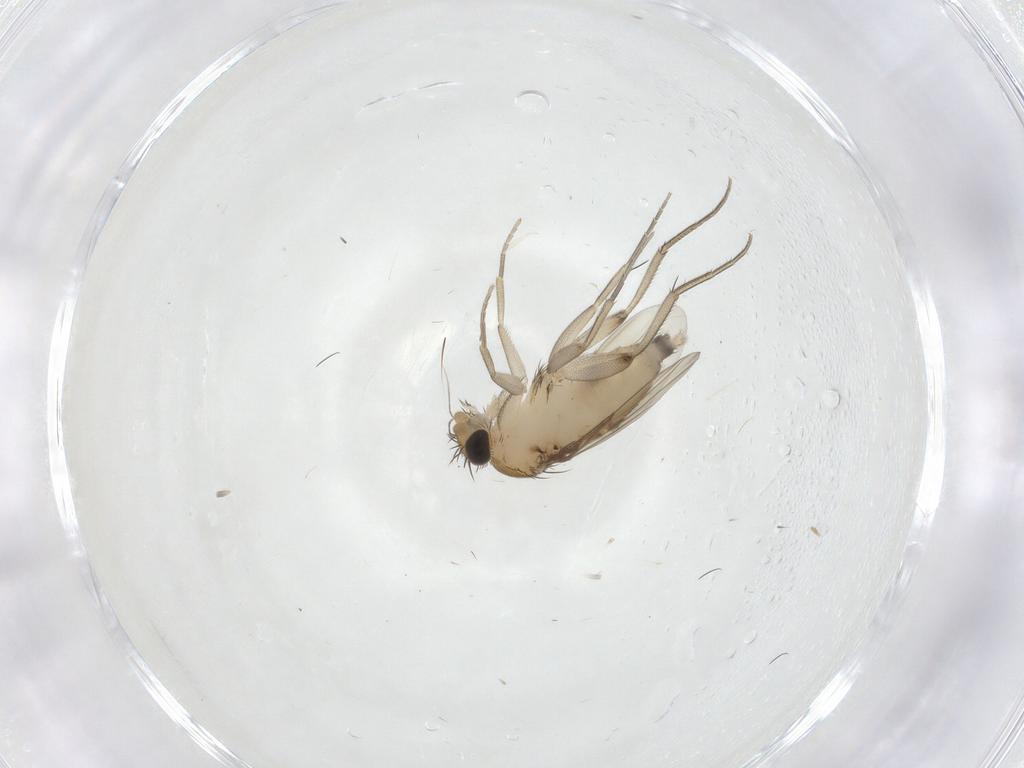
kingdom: Animalia
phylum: Arthropoda
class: Insecta
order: Diptera
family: Phoridae
